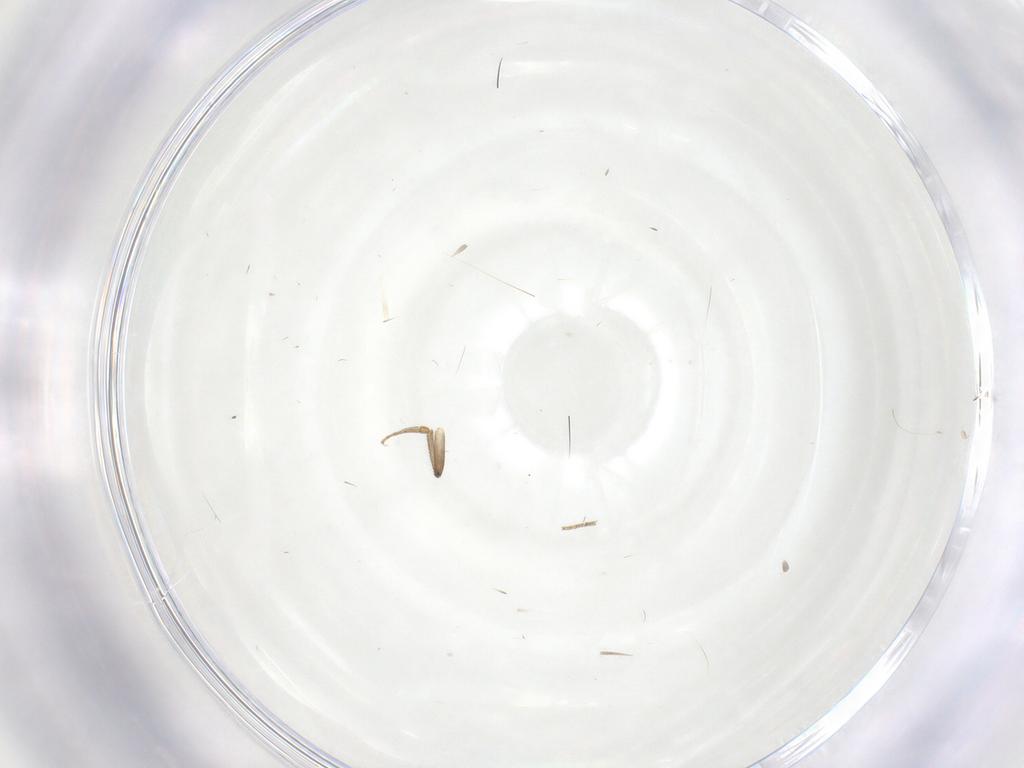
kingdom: Animalia
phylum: Arthropoda
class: Insecta
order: Diptera
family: Sphaeroceridae
